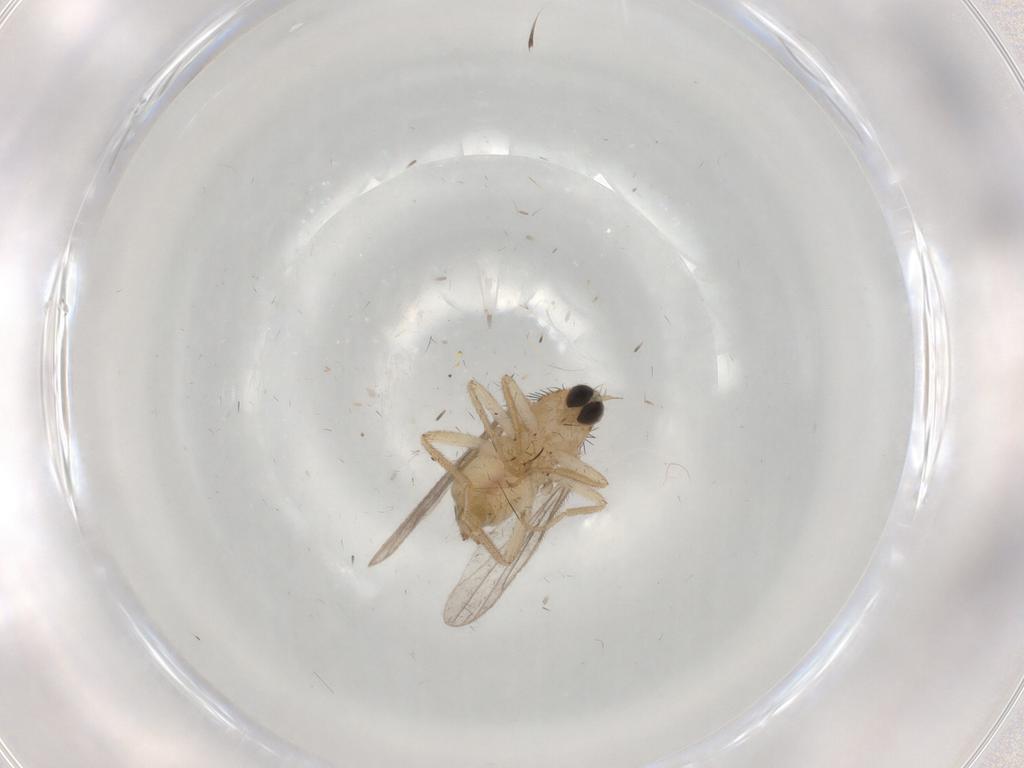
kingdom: Animalia
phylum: Arthropoda
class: Insecta
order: Diptera
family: Hybotidae
